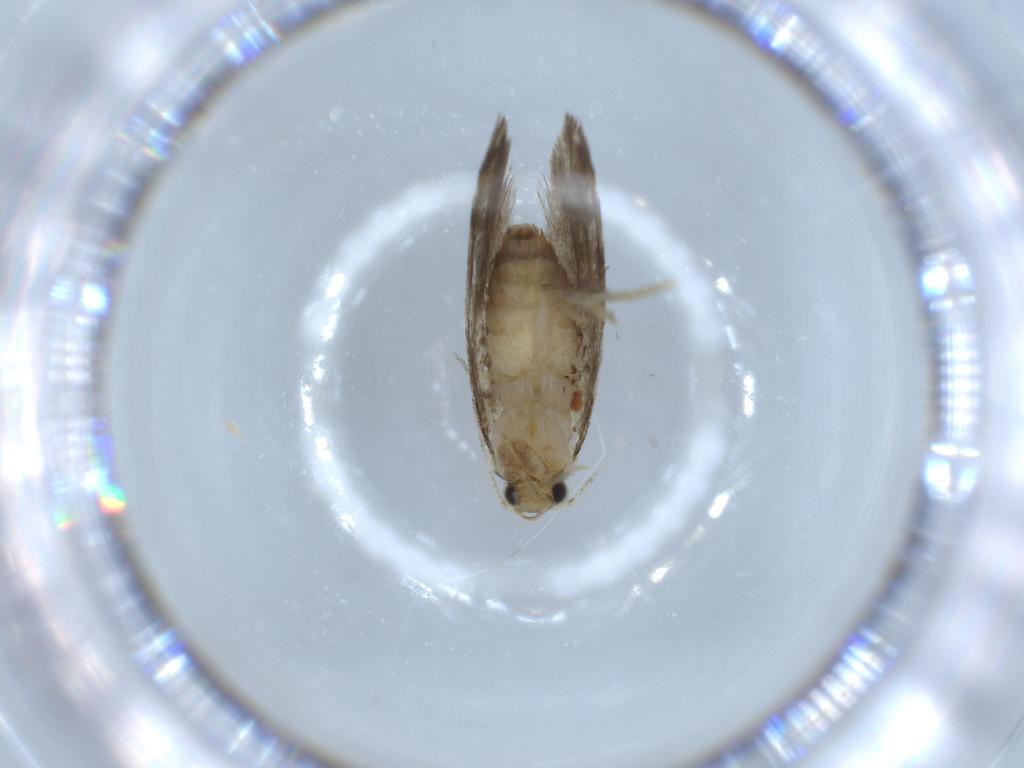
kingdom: Animalia
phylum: Arthropoda
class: Insecta
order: Lepidoptera
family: Tineidae
